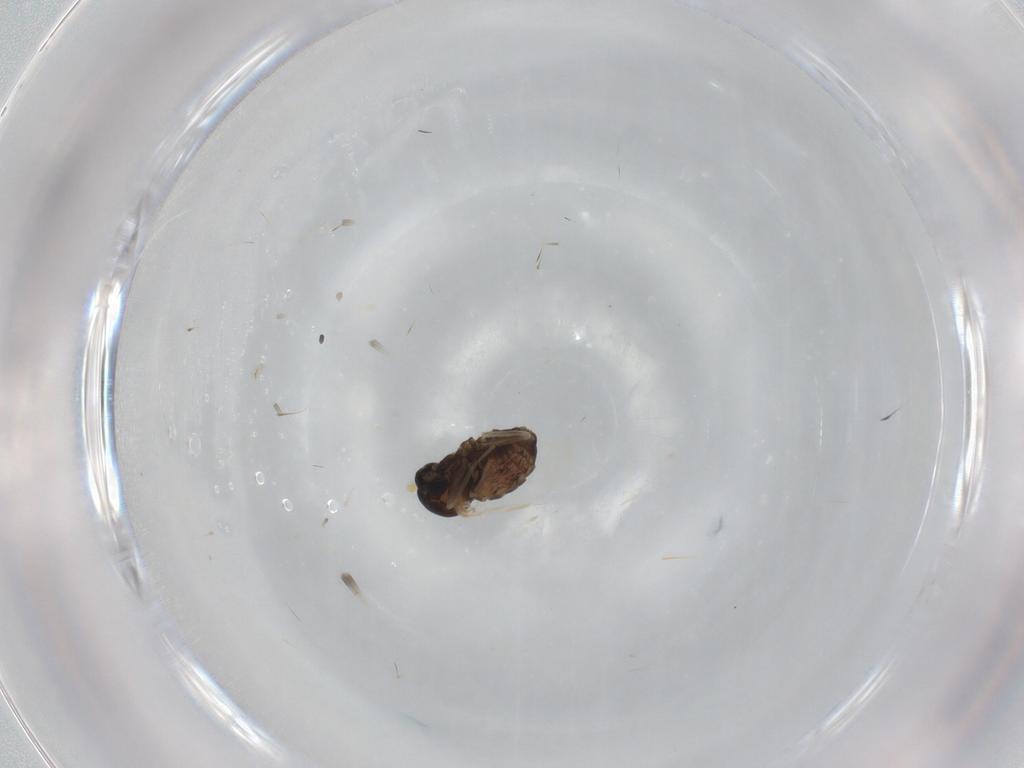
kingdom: Animalia
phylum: Arthropoda
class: Insecta
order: Diptera
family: Cecidomyiidae
